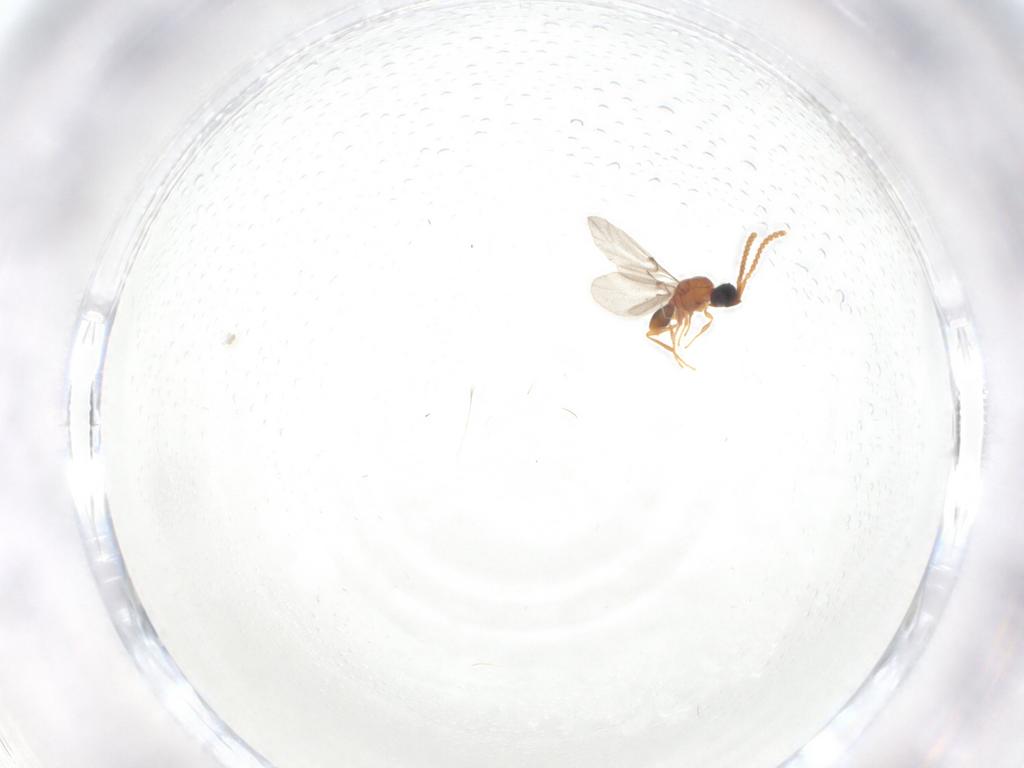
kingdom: Animalia
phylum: Arthropoda
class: Insecta
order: Hymenoptera
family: Diapriidae
